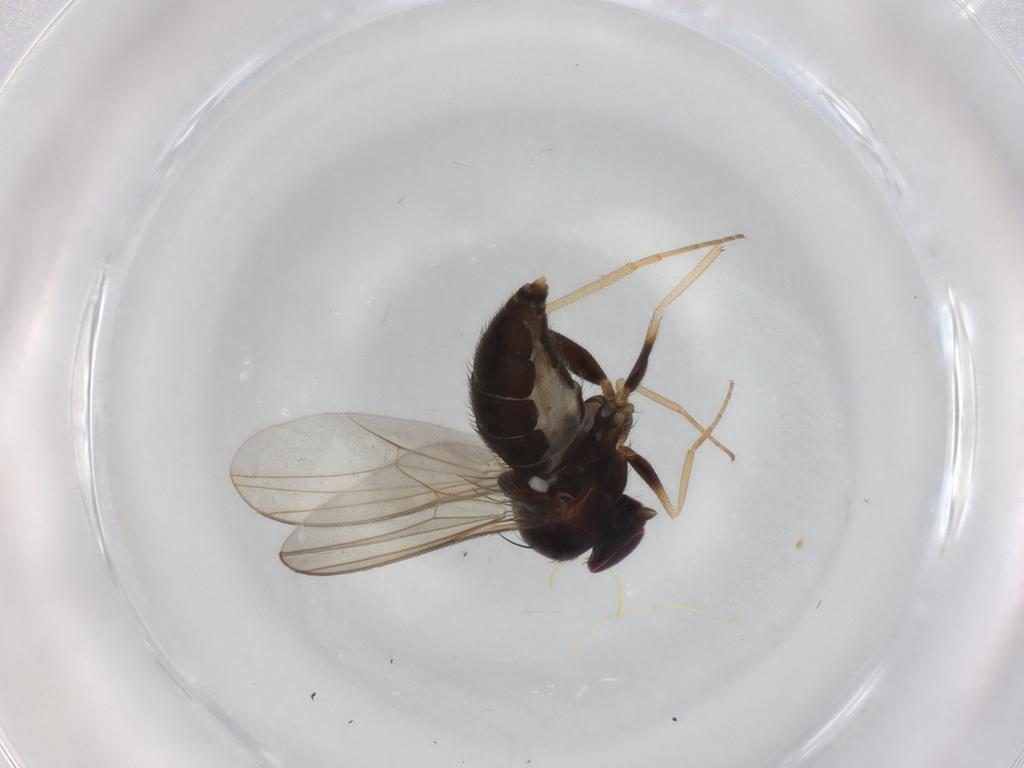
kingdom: Animalia
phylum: Arthropoda
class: Insecta
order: Diptera
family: Dolichopodidae
